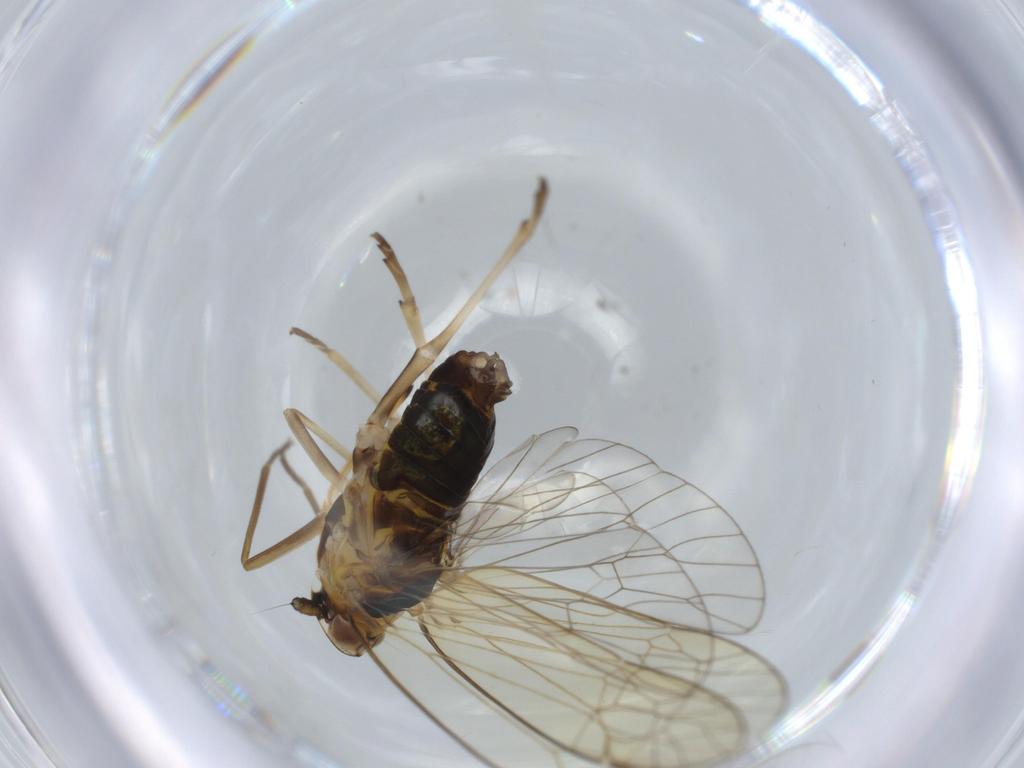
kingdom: Animalia
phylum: Arthropoda
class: Insecta
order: Hemiptera
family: Kinnaridae
